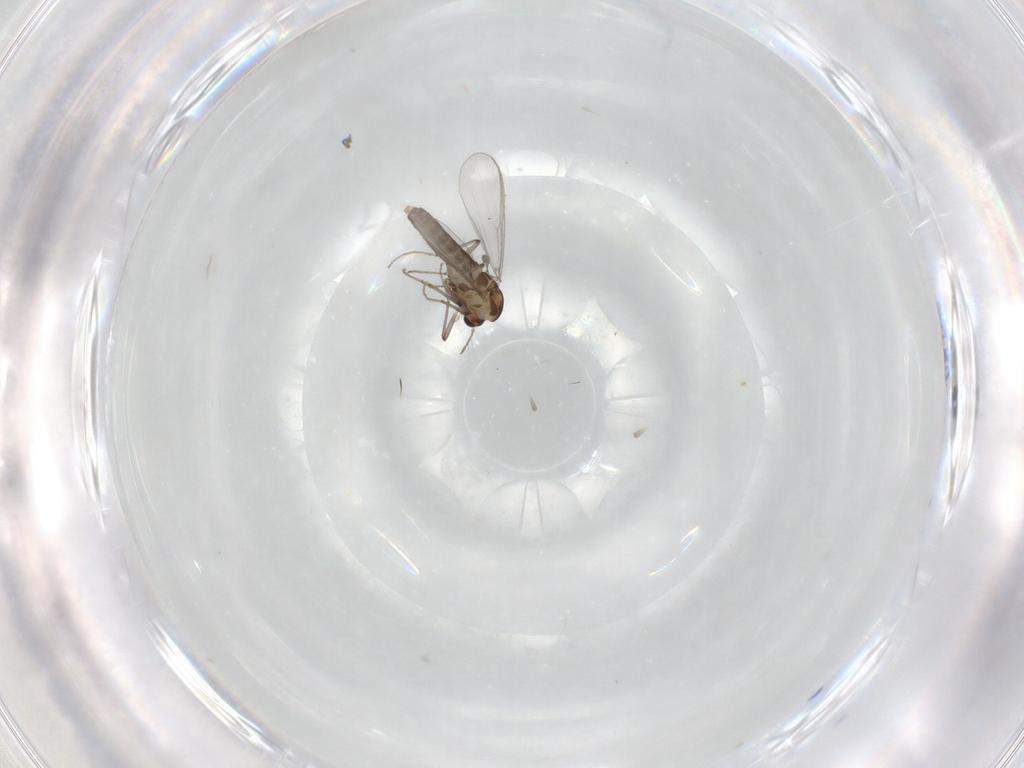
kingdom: Animalia
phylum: Arthropoda
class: Insecta
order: Diptera
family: Chironomidae
